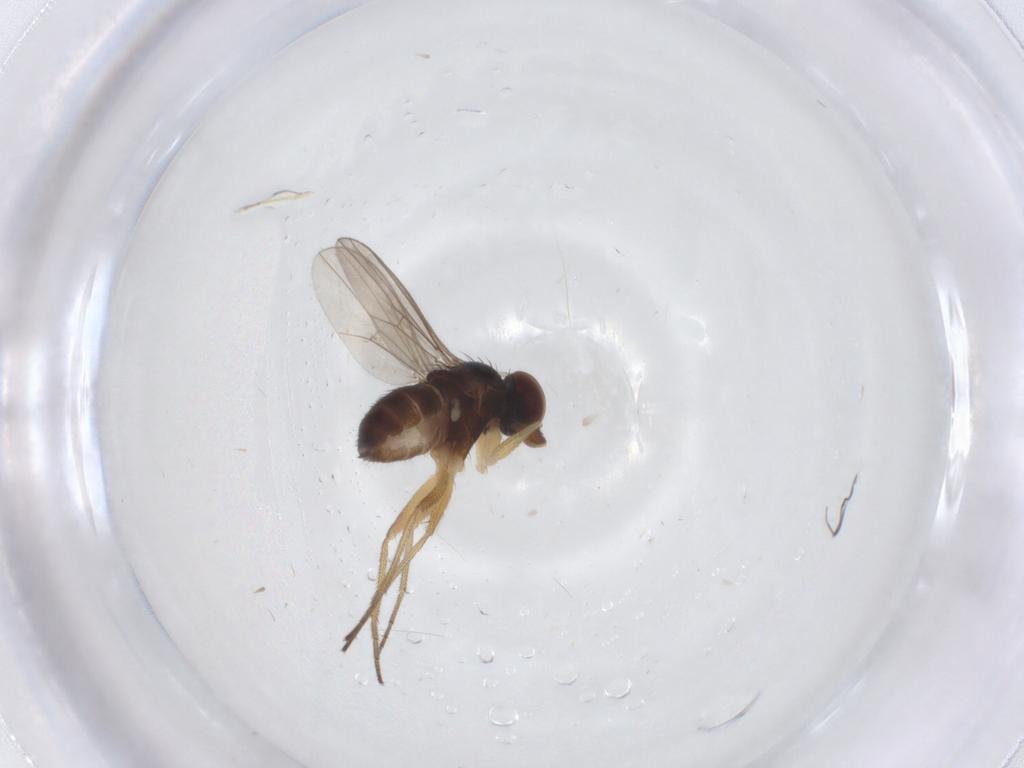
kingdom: Animalia
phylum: Arthropoda
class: Insecta
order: Diptera
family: Dolichopodidae
